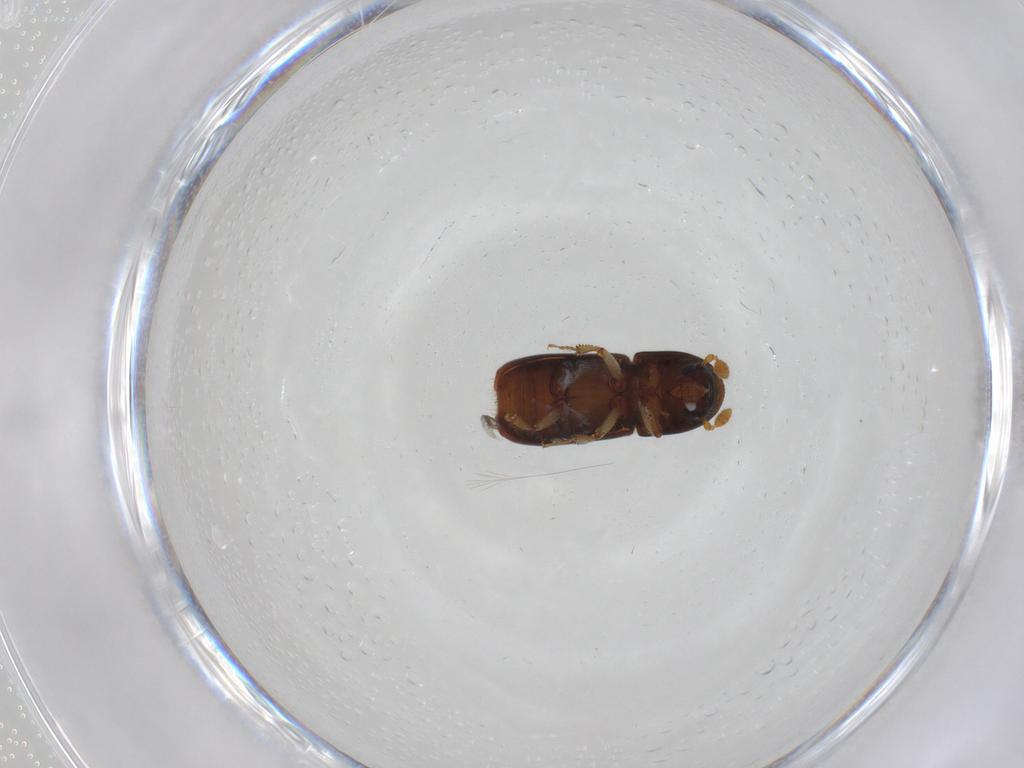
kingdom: Animalia
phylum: Arthropoda
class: Insecta
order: Coleoptera
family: Curculionidae
